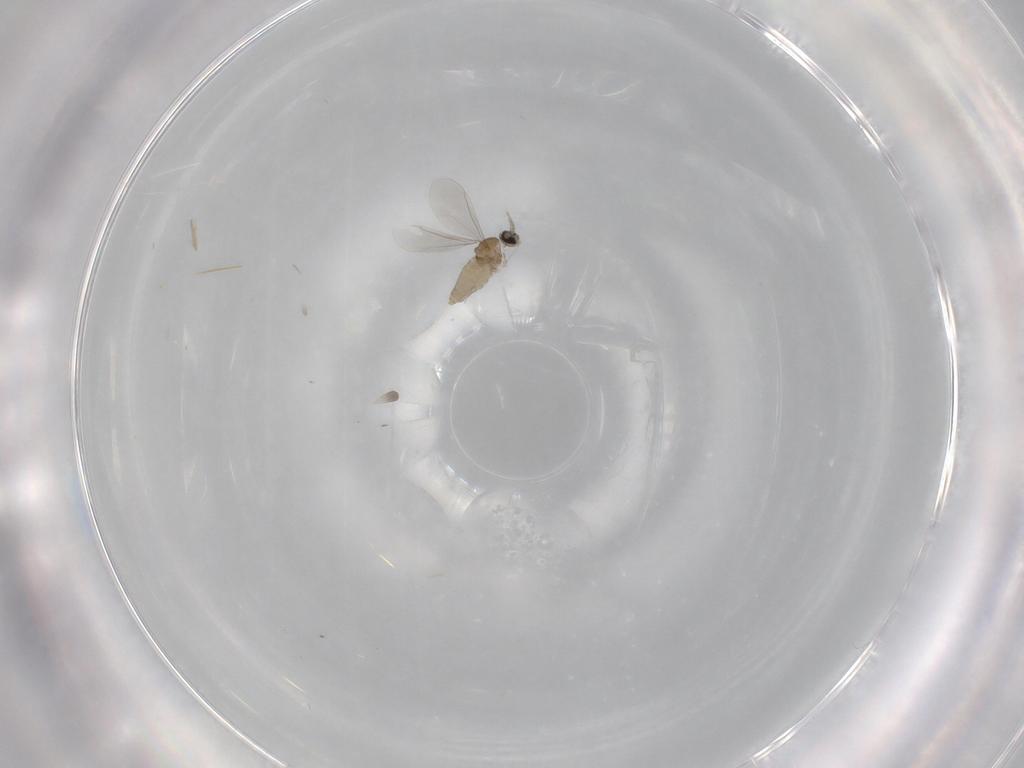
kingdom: Animalia
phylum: Arthropoda
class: Insecta
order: Diptera
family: Cecidomyiidae
